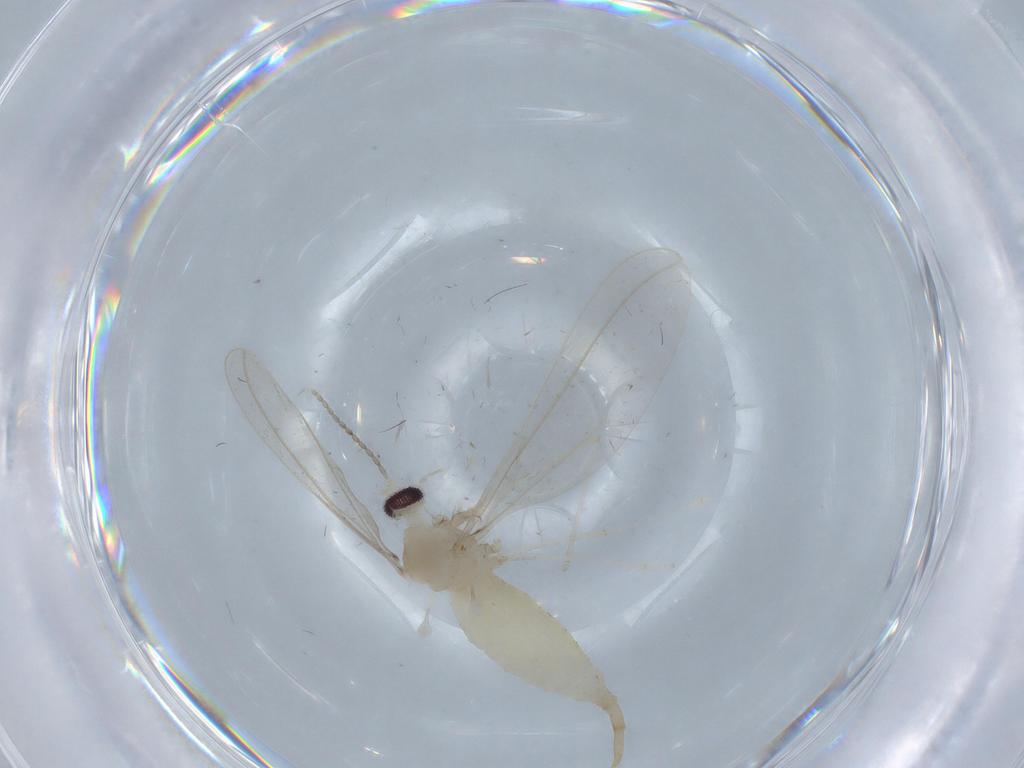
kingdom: Animalia
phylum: Arthropoda
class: Insecta
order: Diptera
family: Cecidomyiidae
